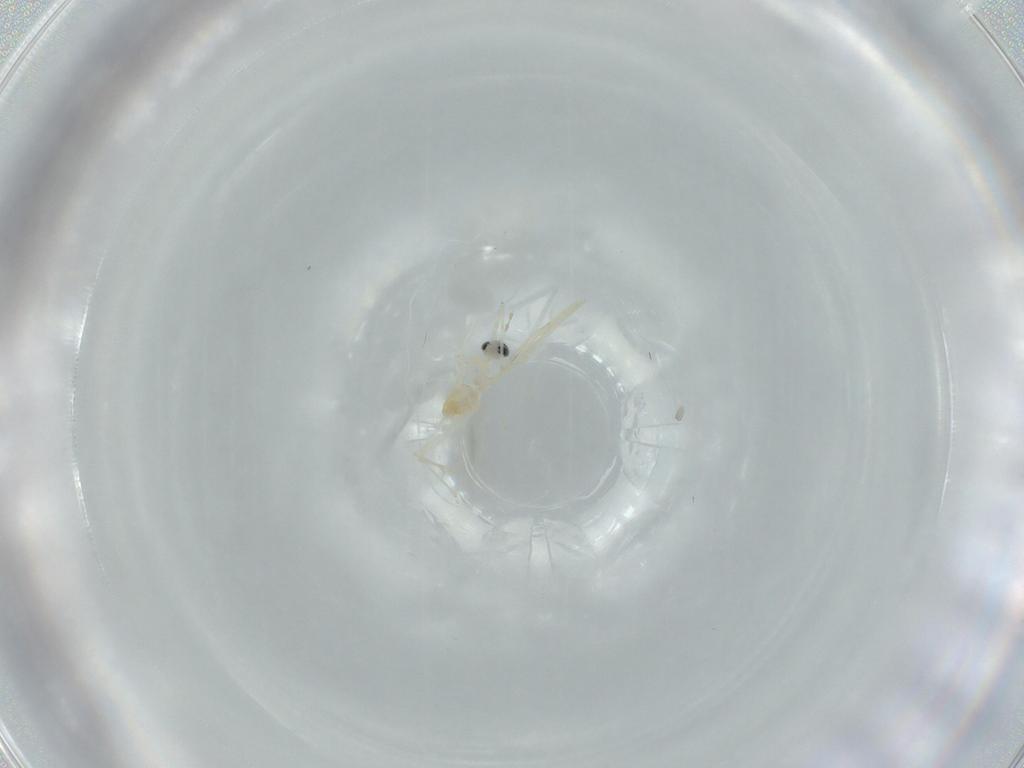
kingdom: Animalia
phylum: Arthropoda
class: Insecta
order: Diptera
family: Cecidomyiidae
